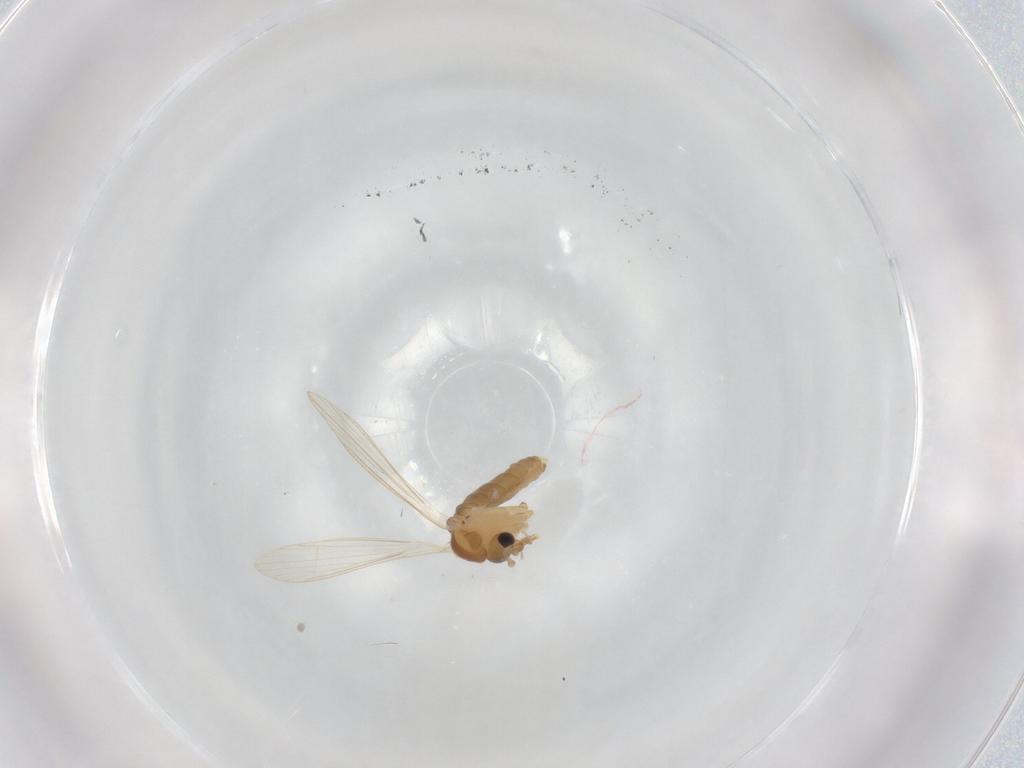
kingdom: Animalia
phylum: Arthropoda
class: Insecta
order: Diptera
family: Psychodidae
